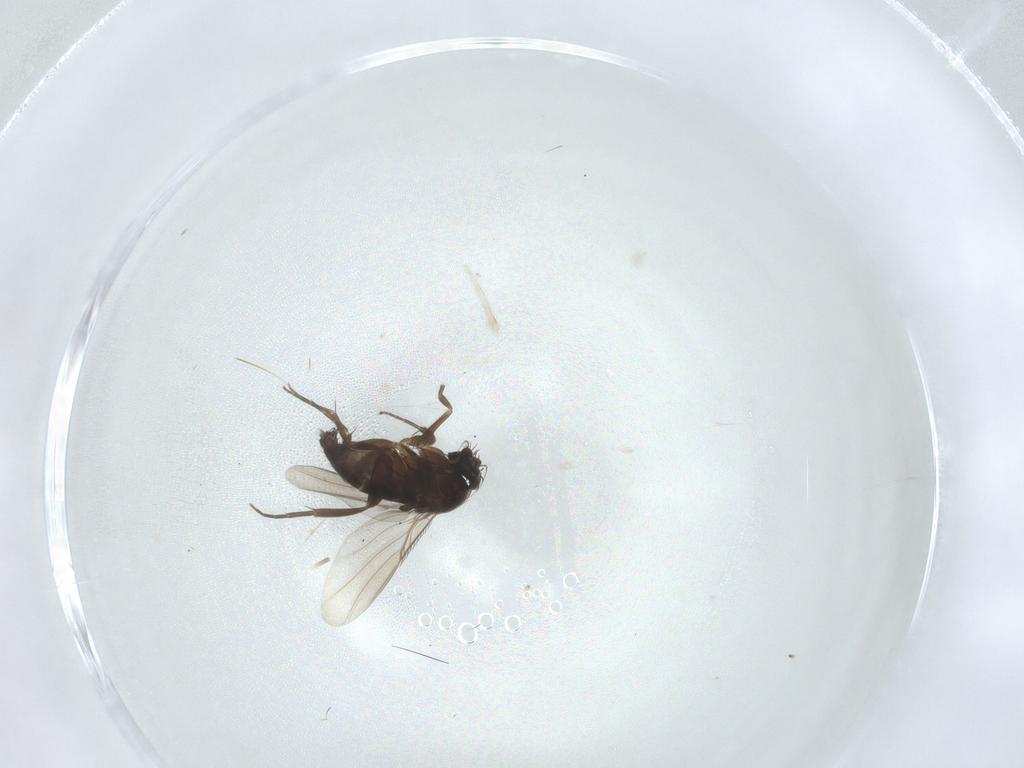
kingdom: Animalia
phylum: Arthropoda
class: Insecta
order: Diptera
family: Phoridae
